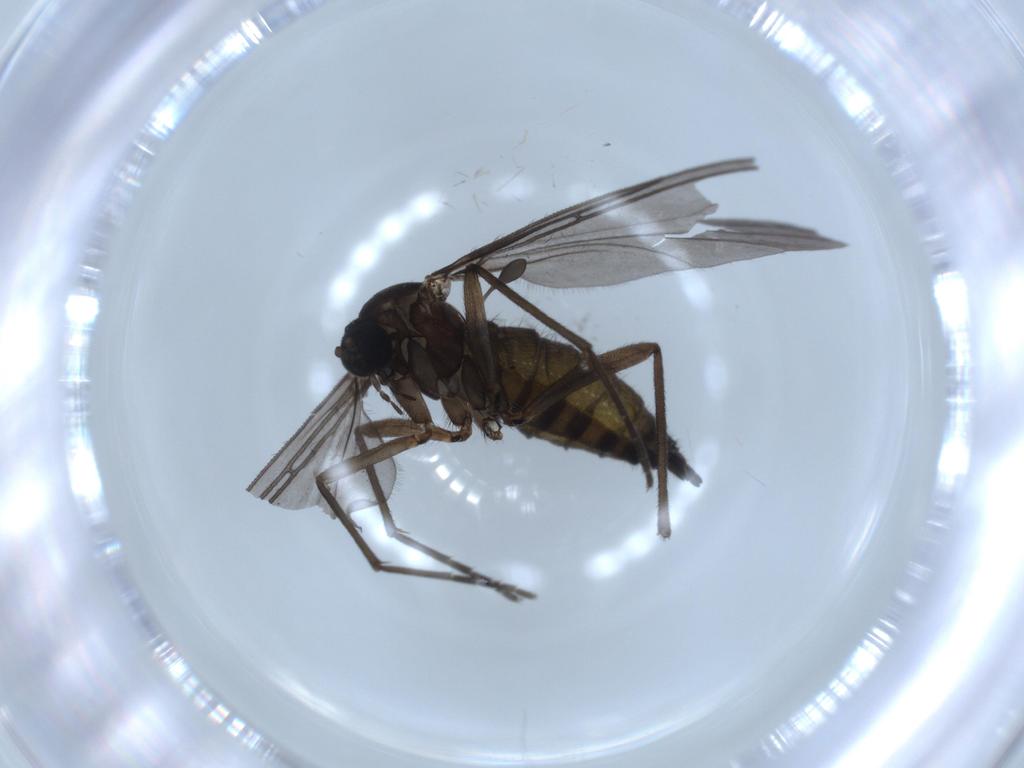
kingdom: Animalia
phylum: Arthropoda
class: Insecta
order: Diptera
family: Sciaridae
